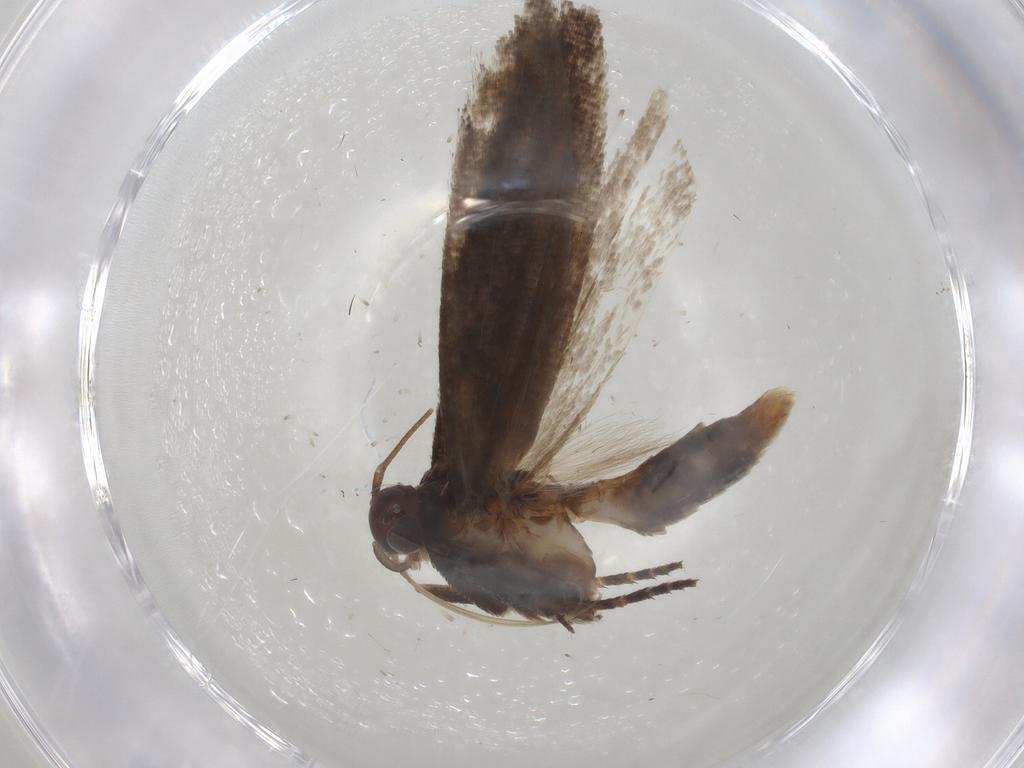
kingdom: Animalia
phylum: Arthropoda
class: Insecta
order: Lepidoptera
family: Gelechiidae
